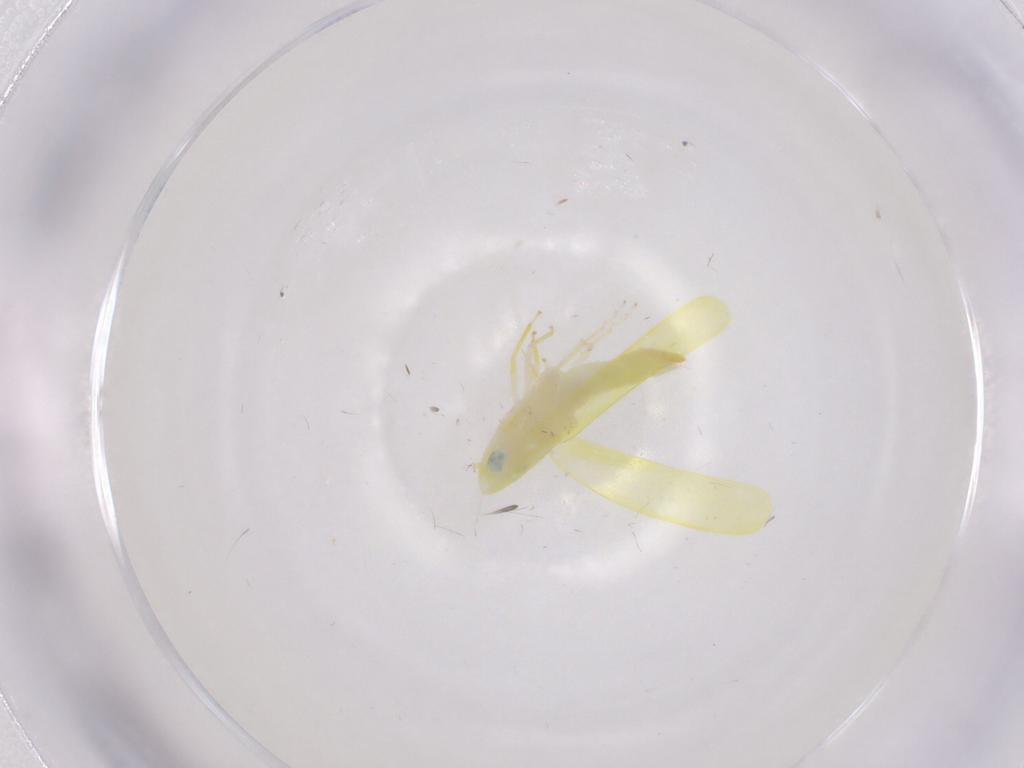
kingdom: Animalia
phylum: Arthropoda
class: Insecta
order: Hemiptera
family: Cicadellidae
